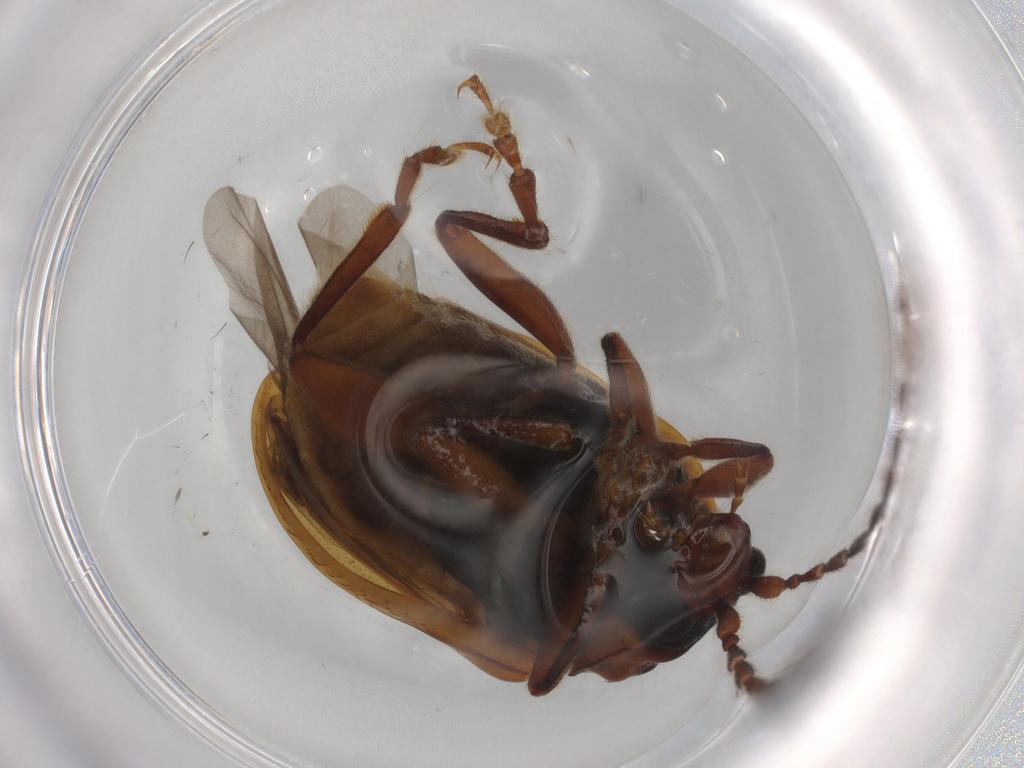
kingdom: Animalia
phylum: Arthropoda
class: Insecta
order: Coleoptera
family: Chrysomelidae
